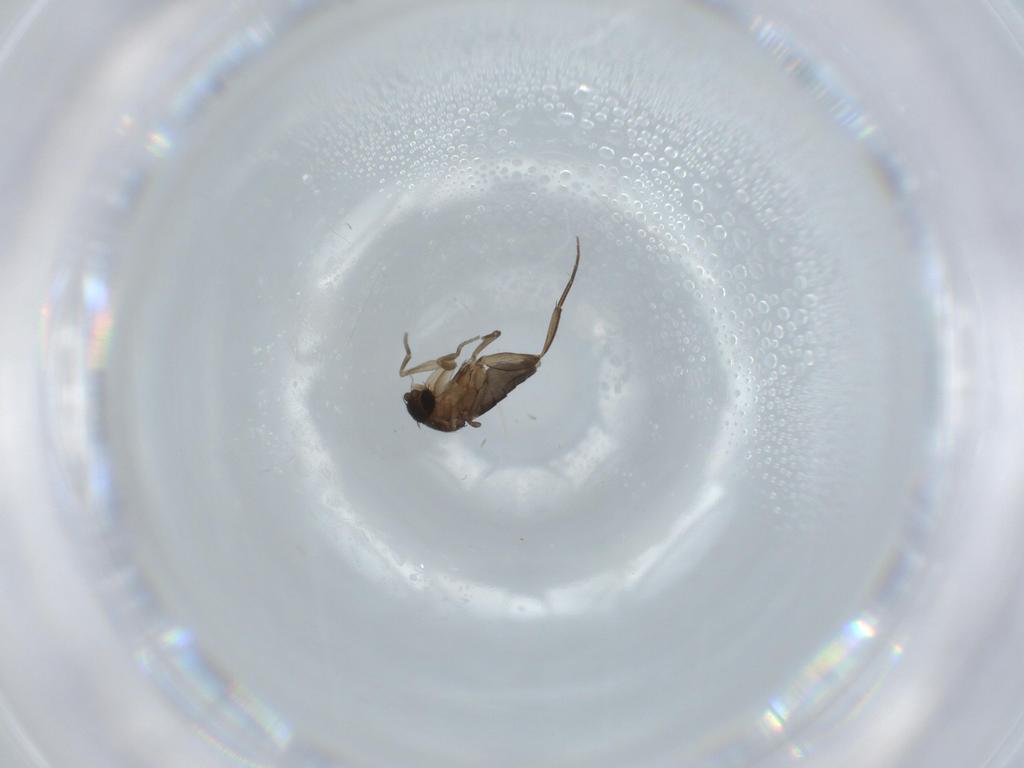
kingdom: Animalia
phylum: Arthropoda
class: Insecta
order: Diptera
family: Phoridae
